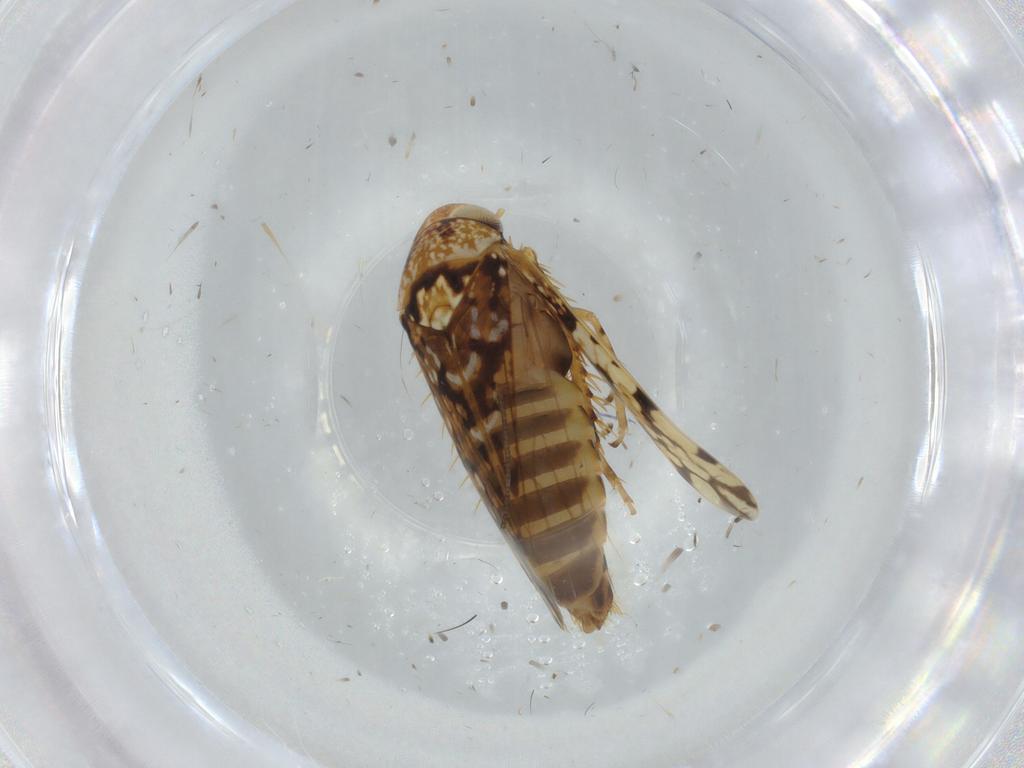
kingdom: Animalia
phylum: Arthropoda
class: Insecta
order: Hemiptera
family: Cicadellidae
